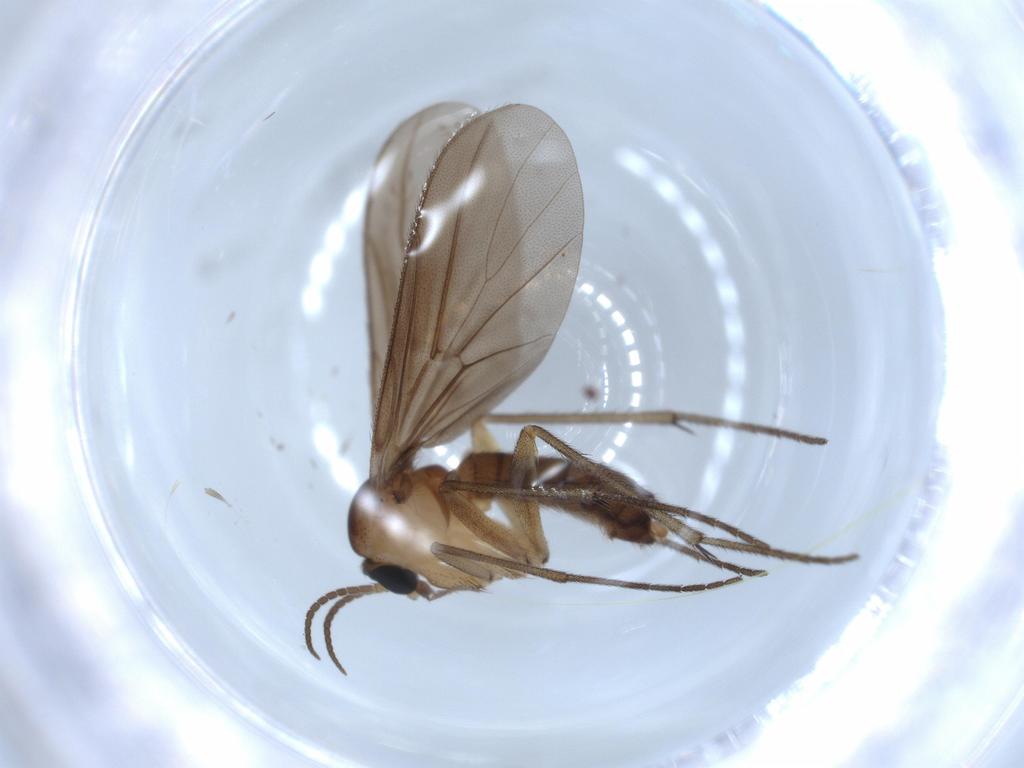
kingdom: Animalia
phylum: Arthropoda
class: Insecta
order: Diptera
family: Diadocidiidae
